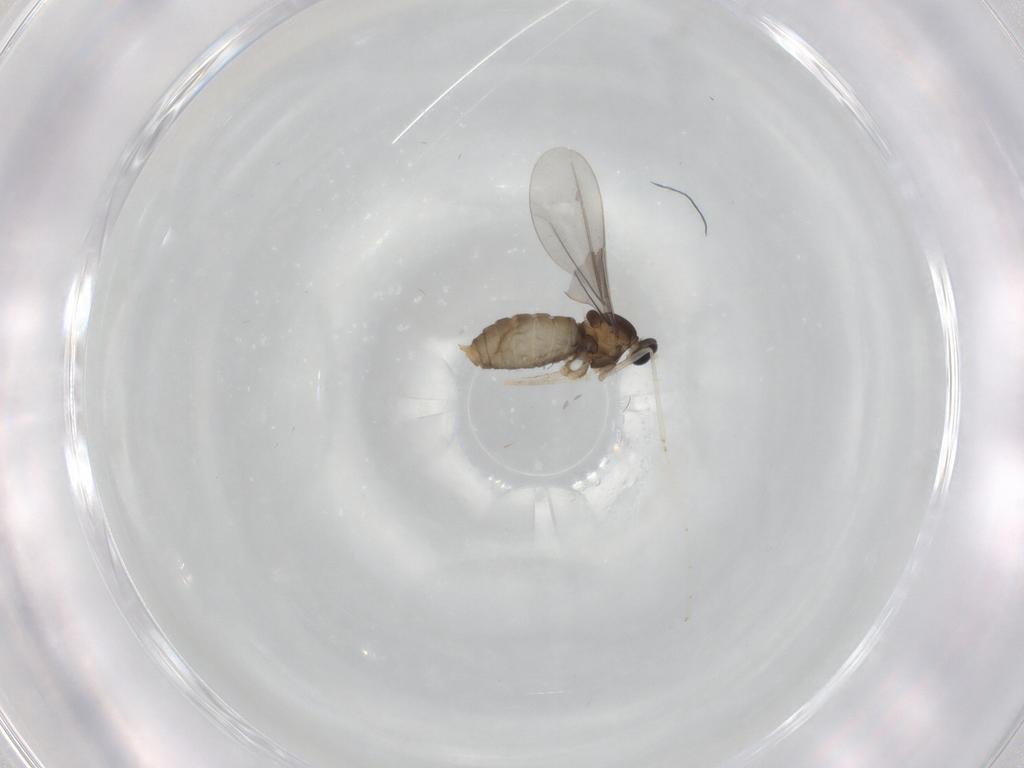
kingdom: Animalia
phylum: Arthropoda
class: Insecta
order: Diptera
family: Cecidomyiidae
